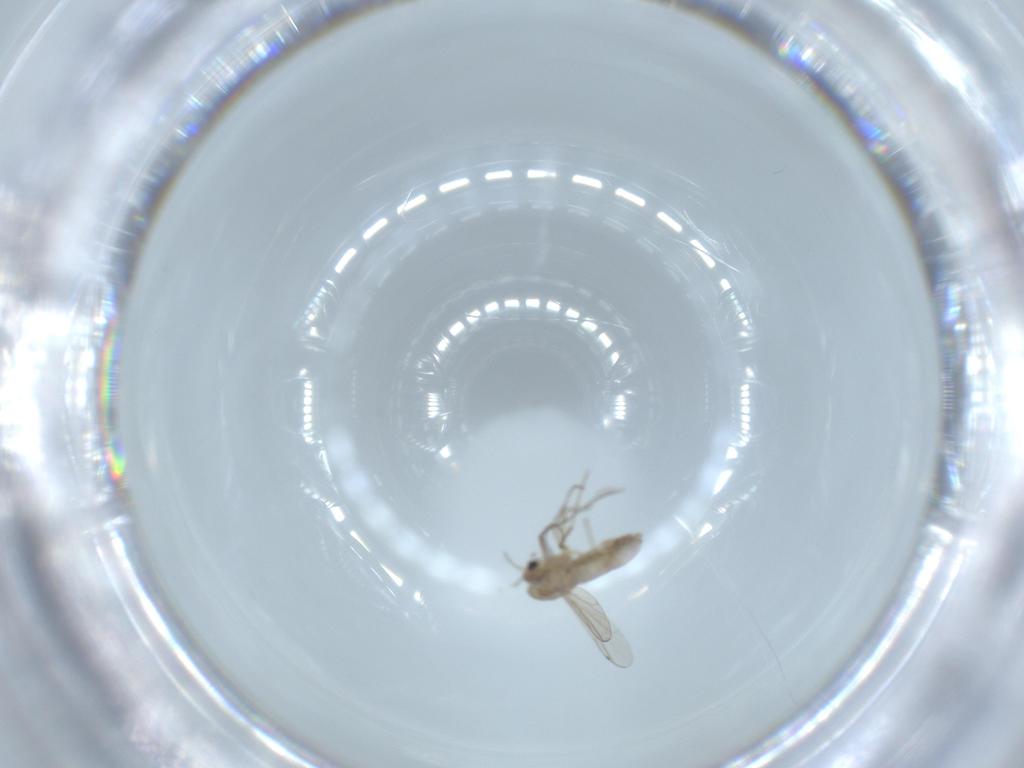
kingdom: Animalia
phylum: Arthropoda
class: Insecta
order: Diptera
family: Chironomidae
